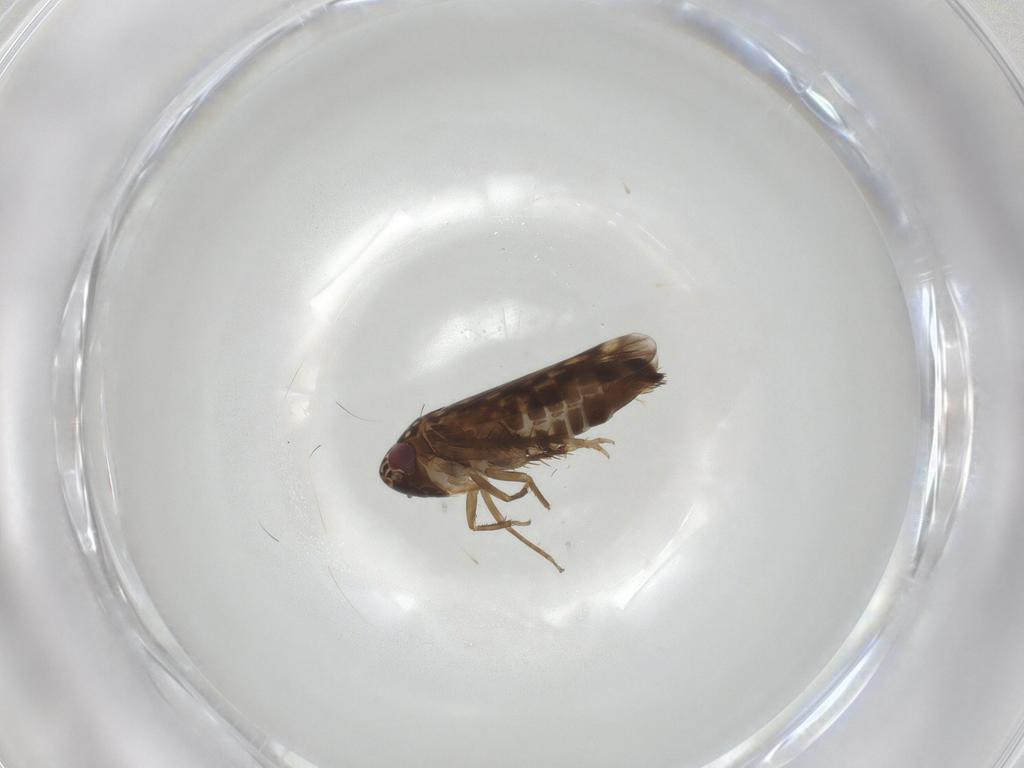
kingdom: Animalia
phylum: Arthropoda
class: Insecta
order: Hemiptera
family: Cicadellidae
